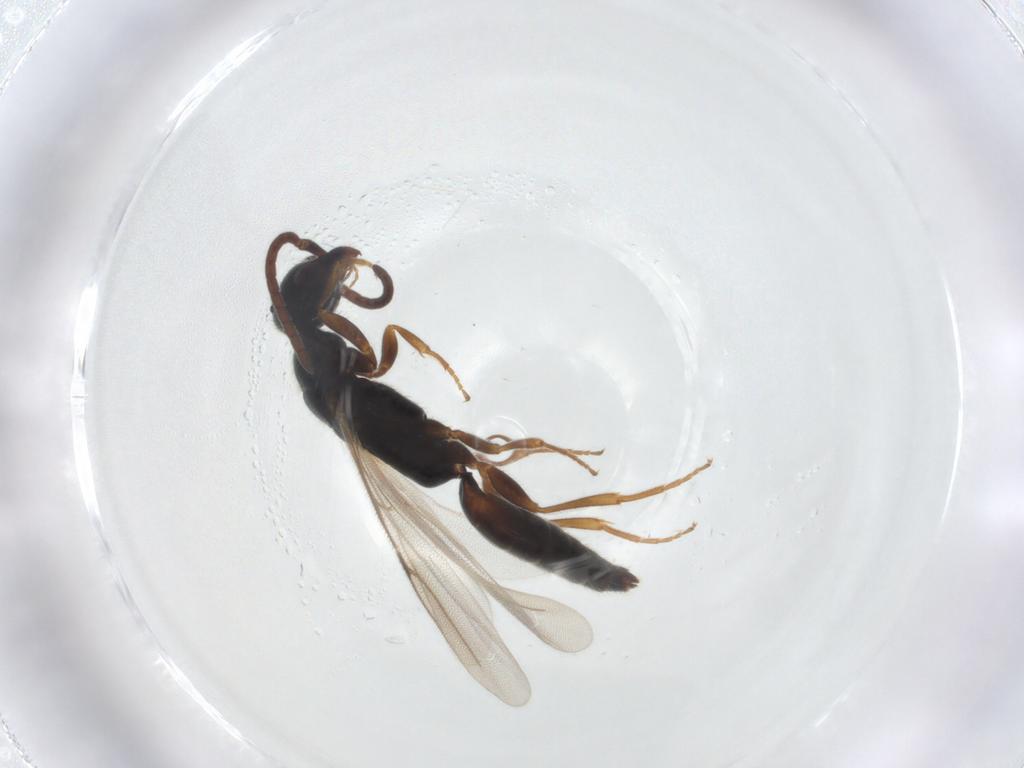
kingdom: Animalia
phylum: Arthropoda
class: Insecta
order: Hymenoptera
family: Bethylidae
